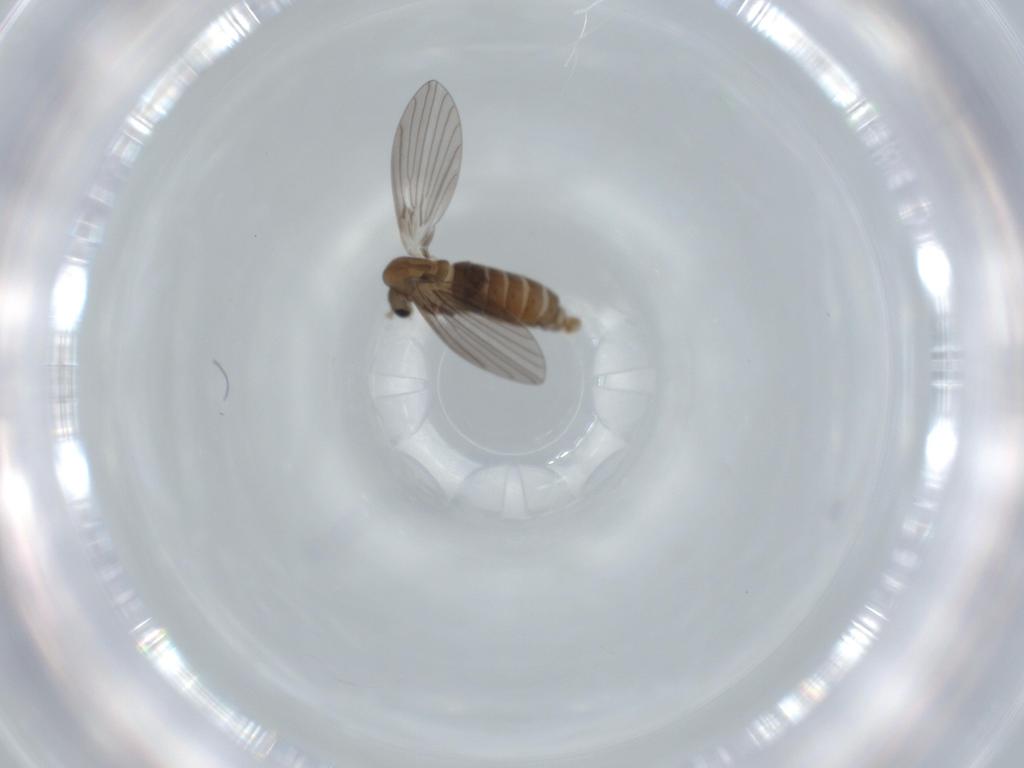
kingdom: Animalia
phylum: Arthropoda
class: Insecta
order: Diptera
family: Psychodidae
